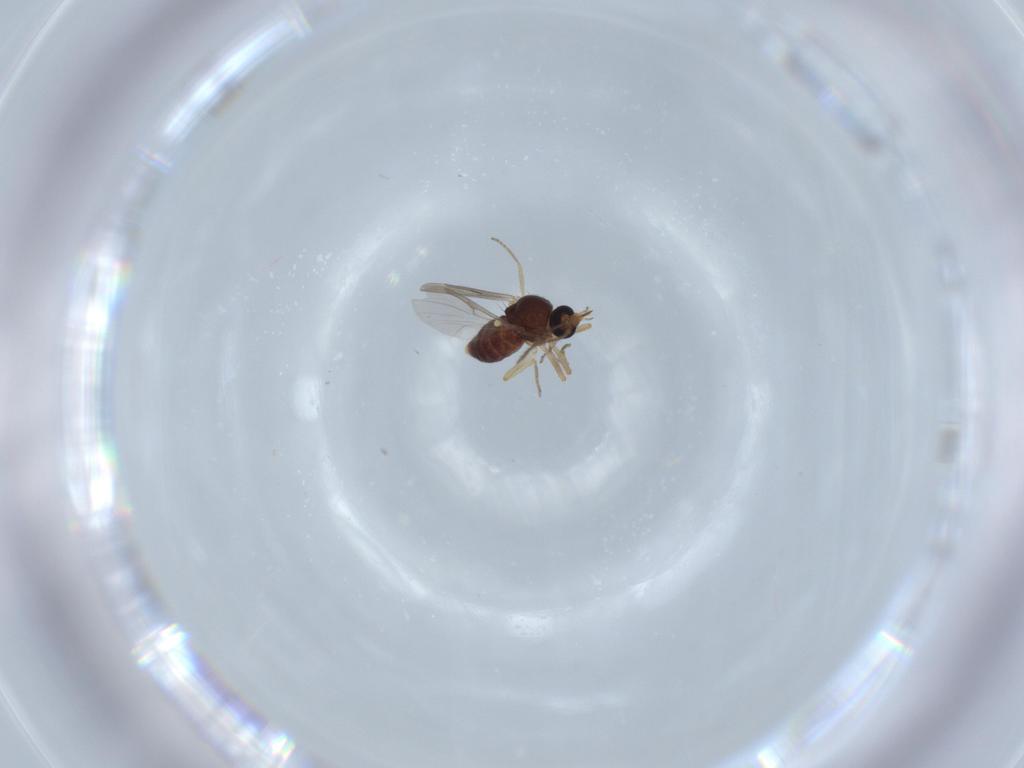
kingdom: Animalia
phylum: Arthropoda
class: Insecta
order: Diptera
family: Ceratopogonidae
